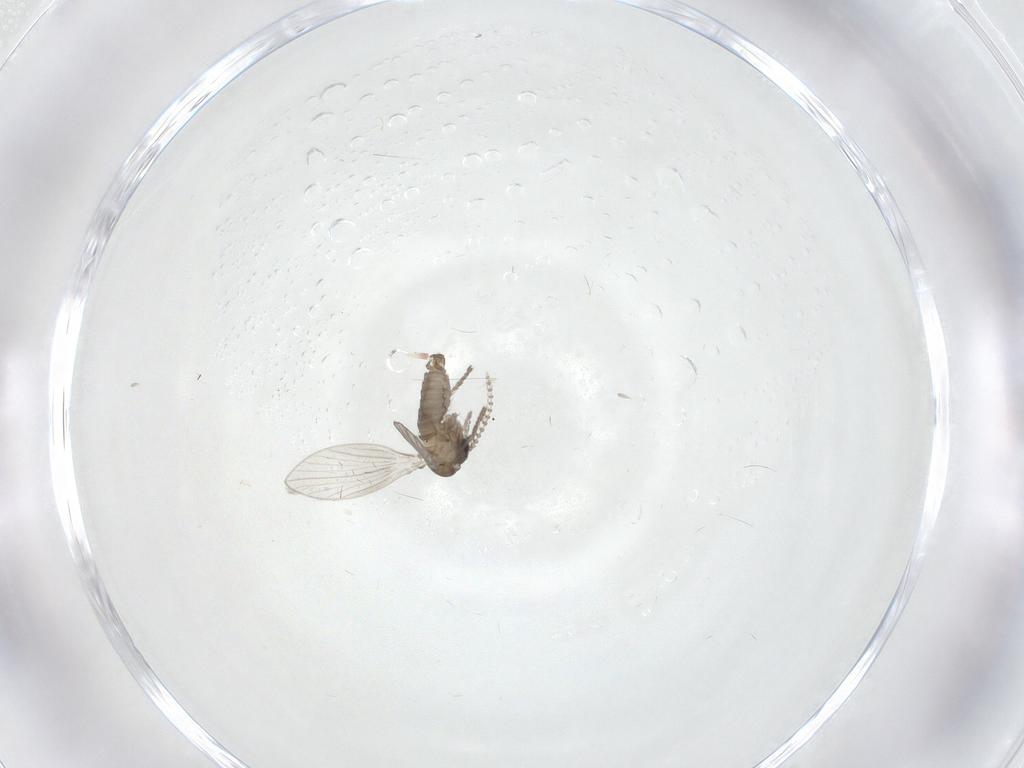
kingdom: Animalia
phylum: Arthropoda
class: Insecta
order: Diptera
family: Psychodidae
